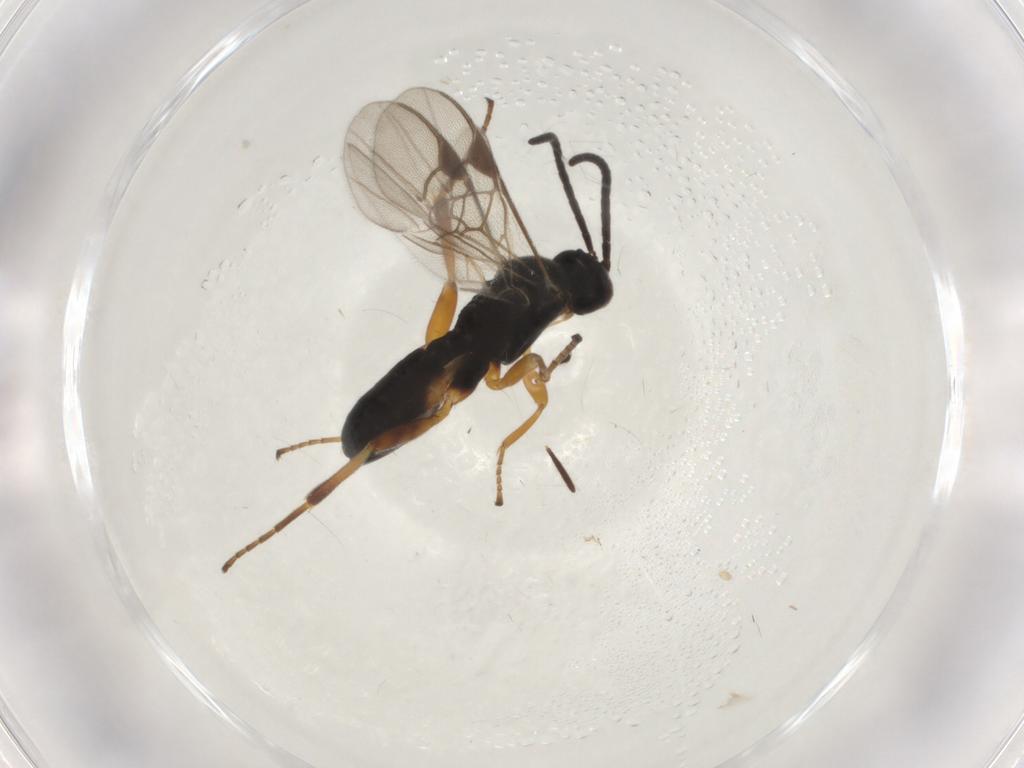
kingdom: Animalia
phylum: Arthropoda
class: Insecta
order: Hymenoptera
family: Braconidae
